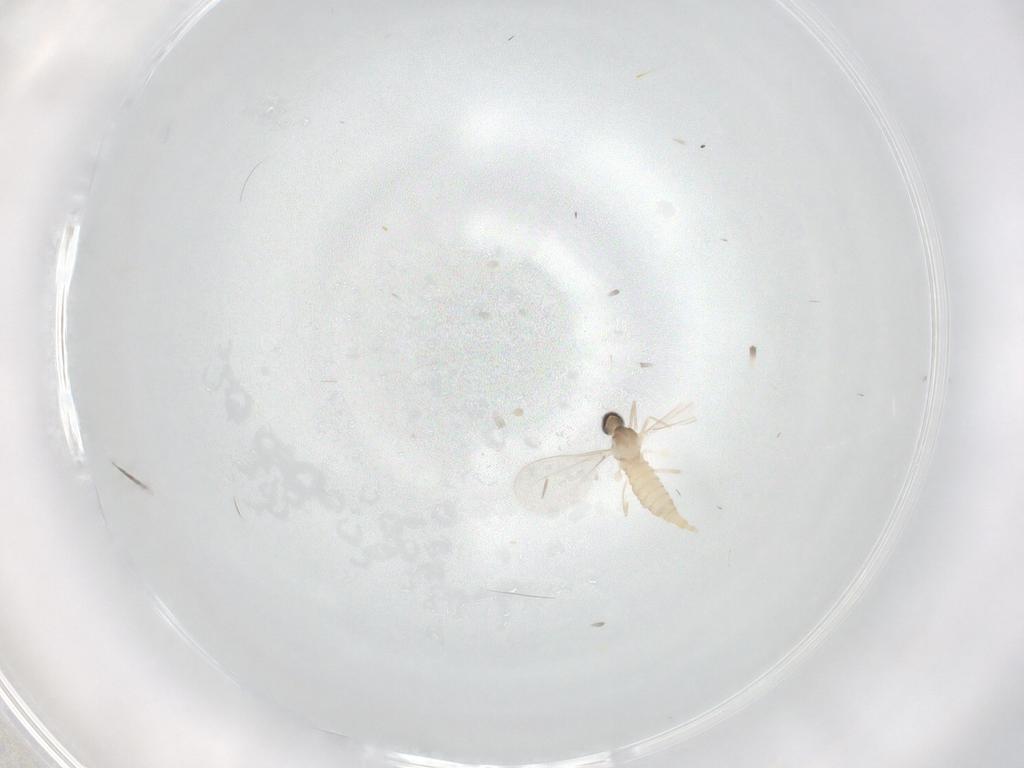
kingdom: Animalia
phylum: Arthropoda
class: Insecta
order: Diptera
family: Cecidomyiidae
